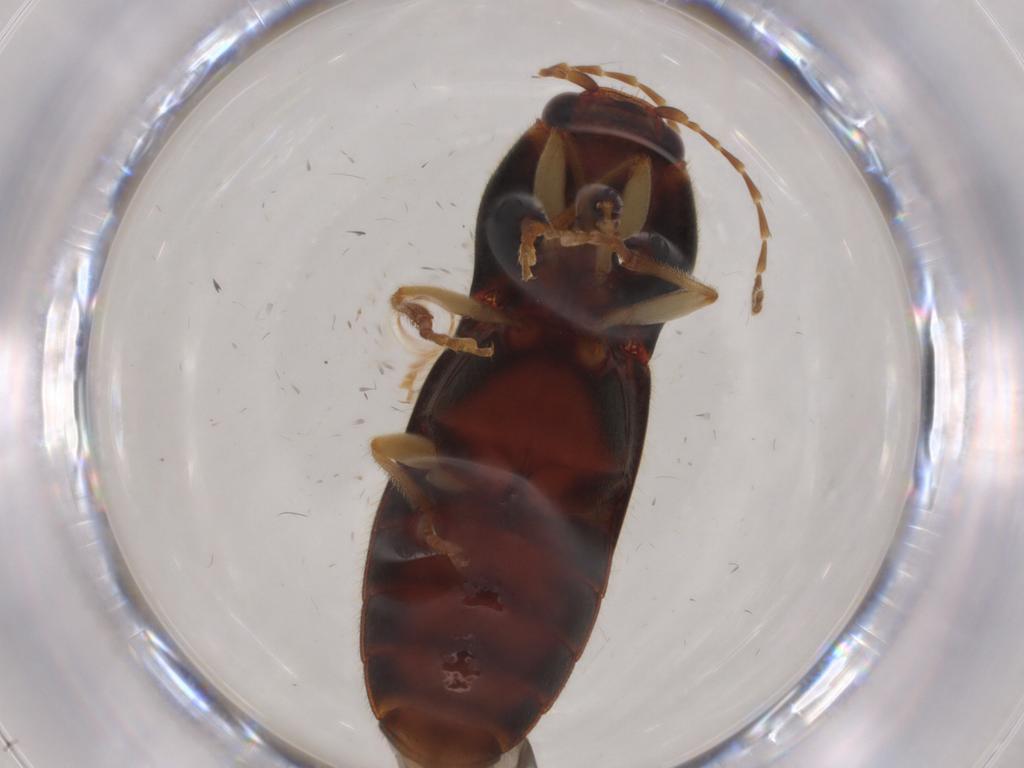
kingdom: Animalia
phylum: Arthropoda
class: Insecta
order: Coleoptera
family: Elateridae
